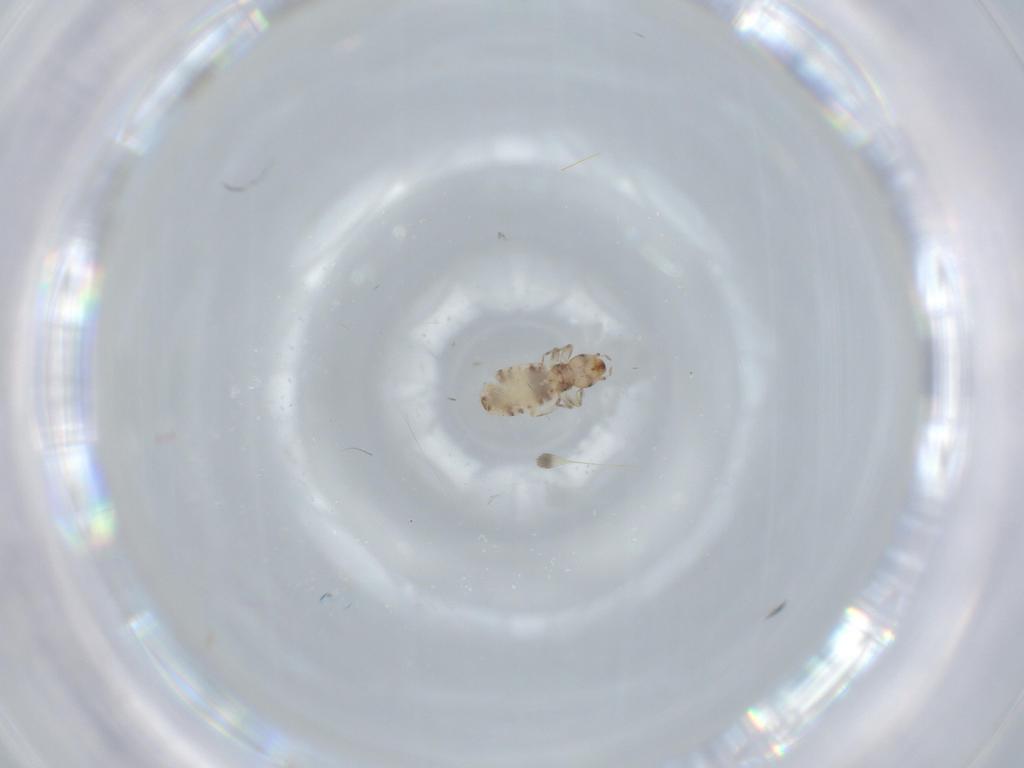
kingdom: Animalia
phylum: Arthropoda
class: Insecta
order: Psocodea
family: Liposcelididae
